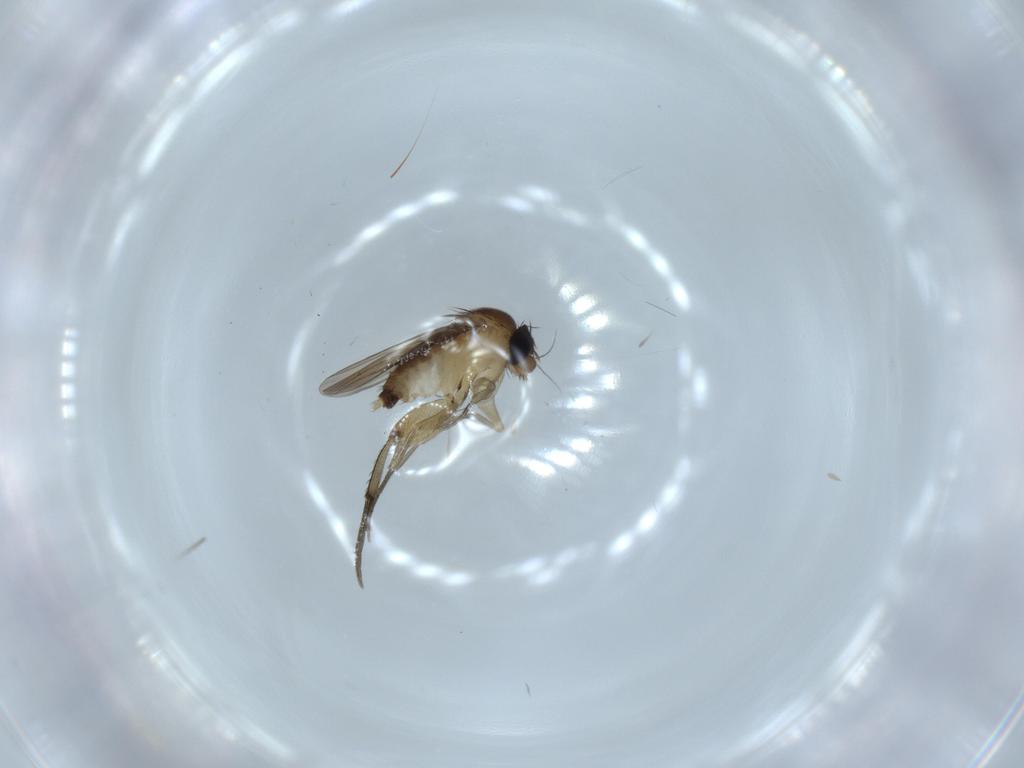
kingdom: Animalia
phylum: Arthropoda
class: Insecta
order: Diptera
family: Phoridae
